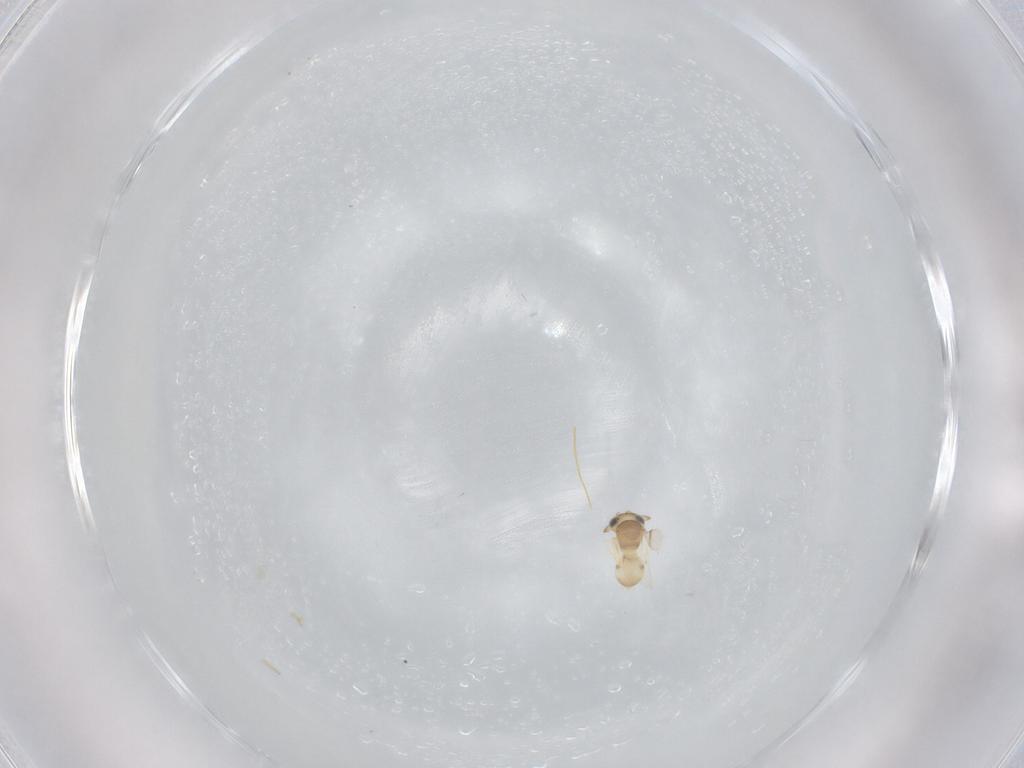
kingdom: Animalia
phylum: Arthropoda
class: Insecta
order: Hymenoptera
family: Scelionidae
